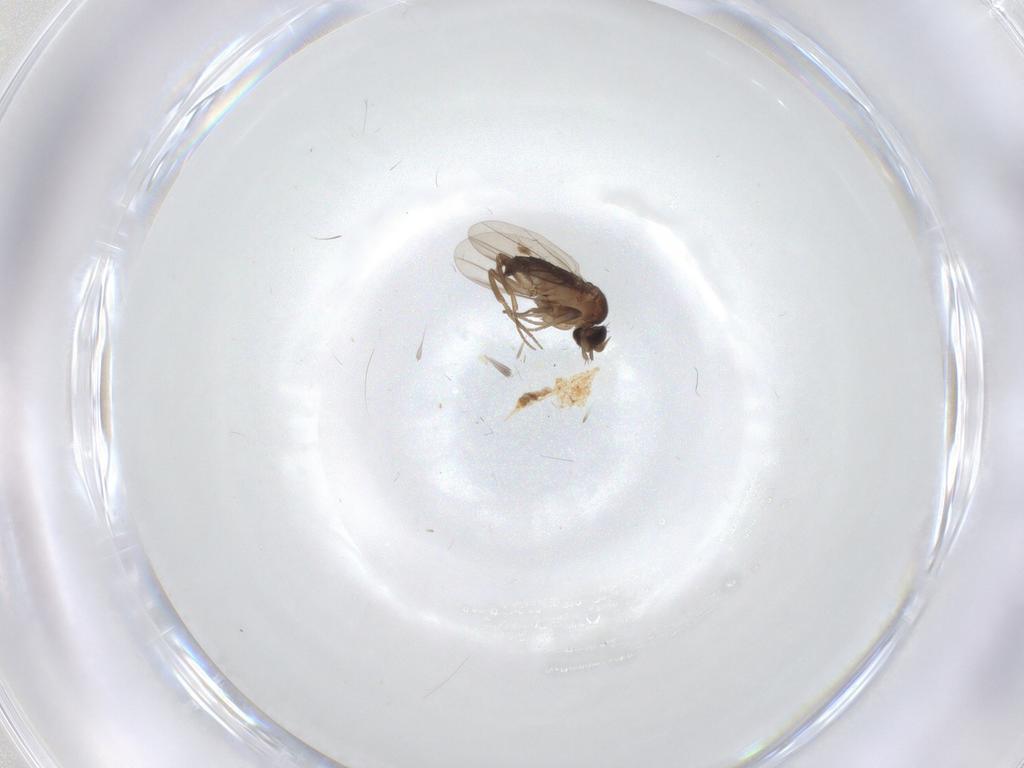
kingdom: Animalia
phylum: Arthropoda
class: Insecta
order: Diptera
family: Phoridae
